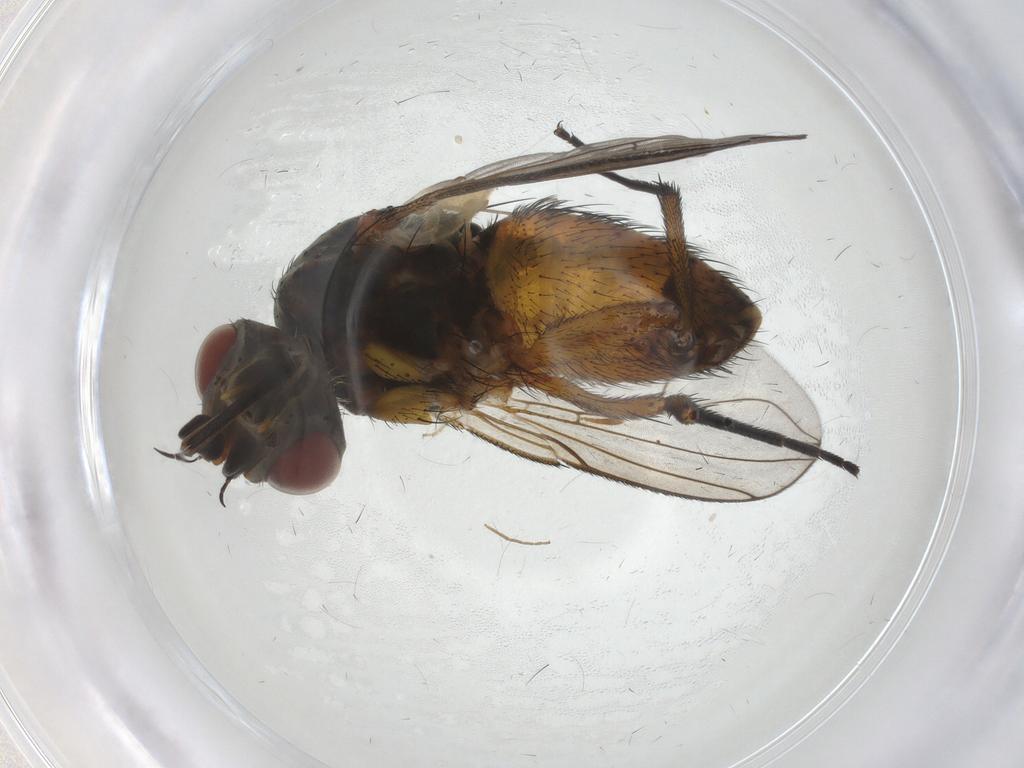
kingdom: Animalia
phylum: Arthropoda
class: Insecta
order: Diptera
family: Tachinidae
